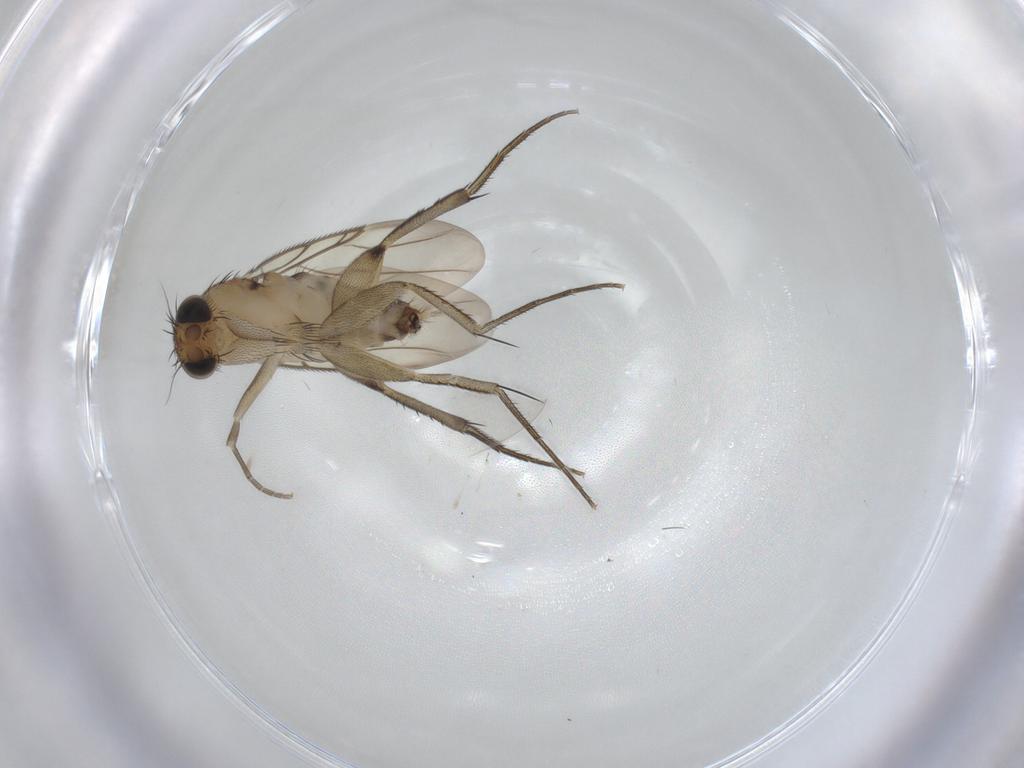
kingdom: Animalia
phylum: Arthropoda
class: Insecta
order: Diptera
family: Phoridae
